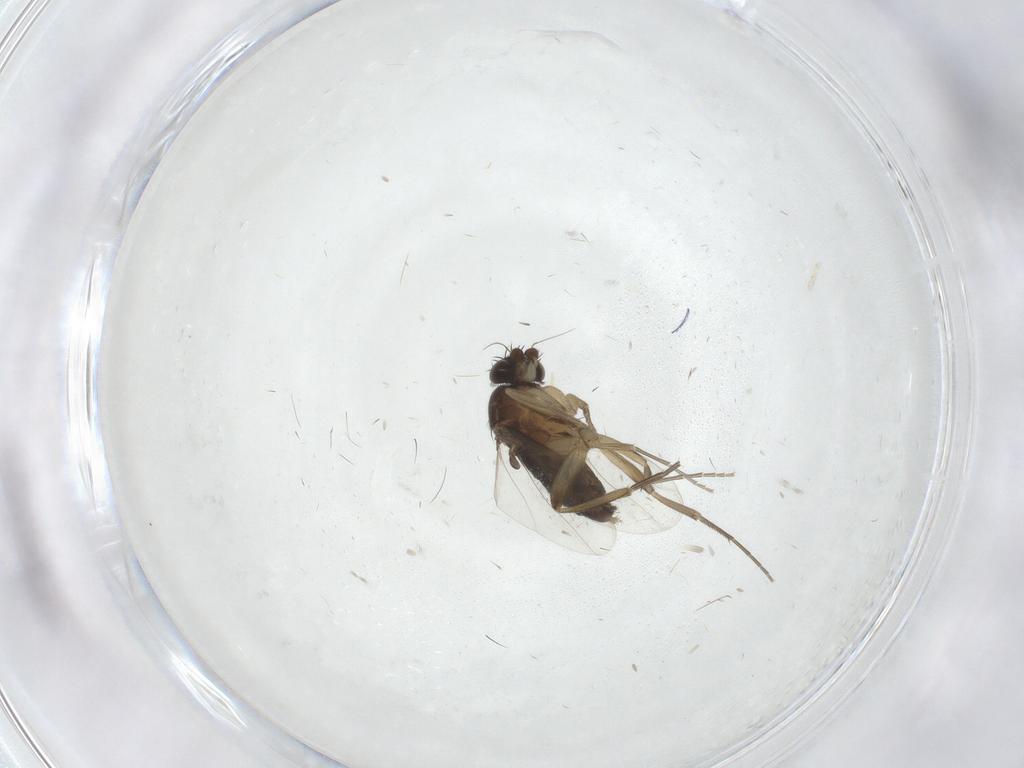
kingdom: Animalia
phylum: Arthropoda
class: Insecta
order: Diptera
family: Phoridae
